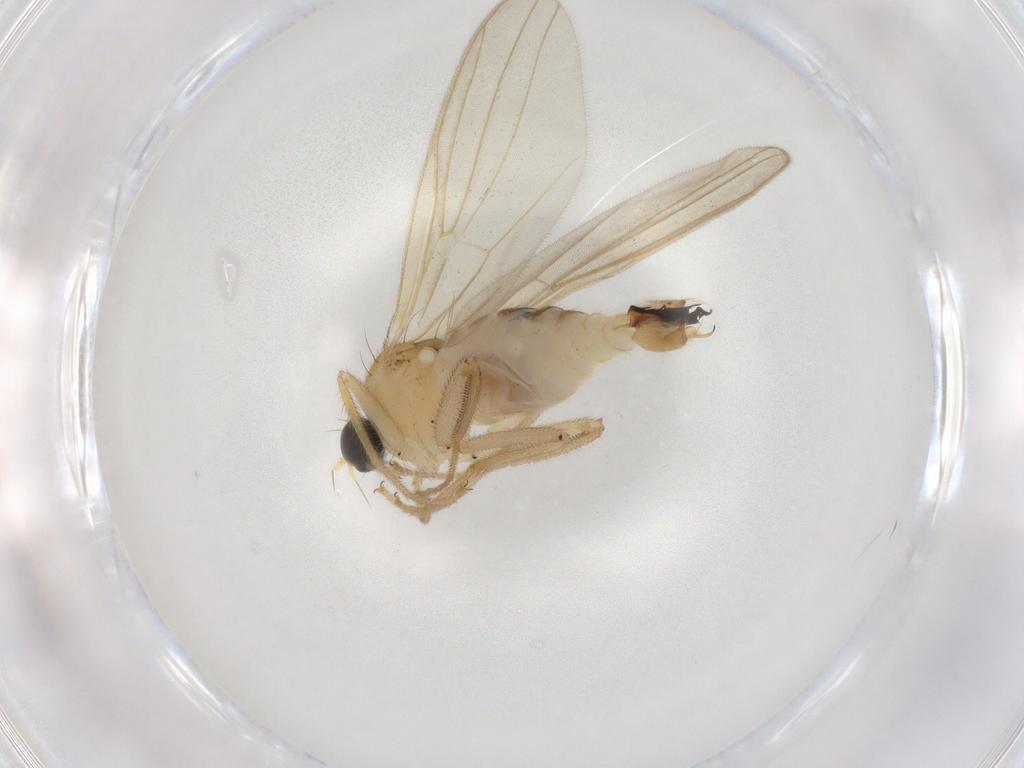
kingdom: Animalia
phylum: Arthropoda
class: Insecta
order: Diptera
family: Hybotidae
